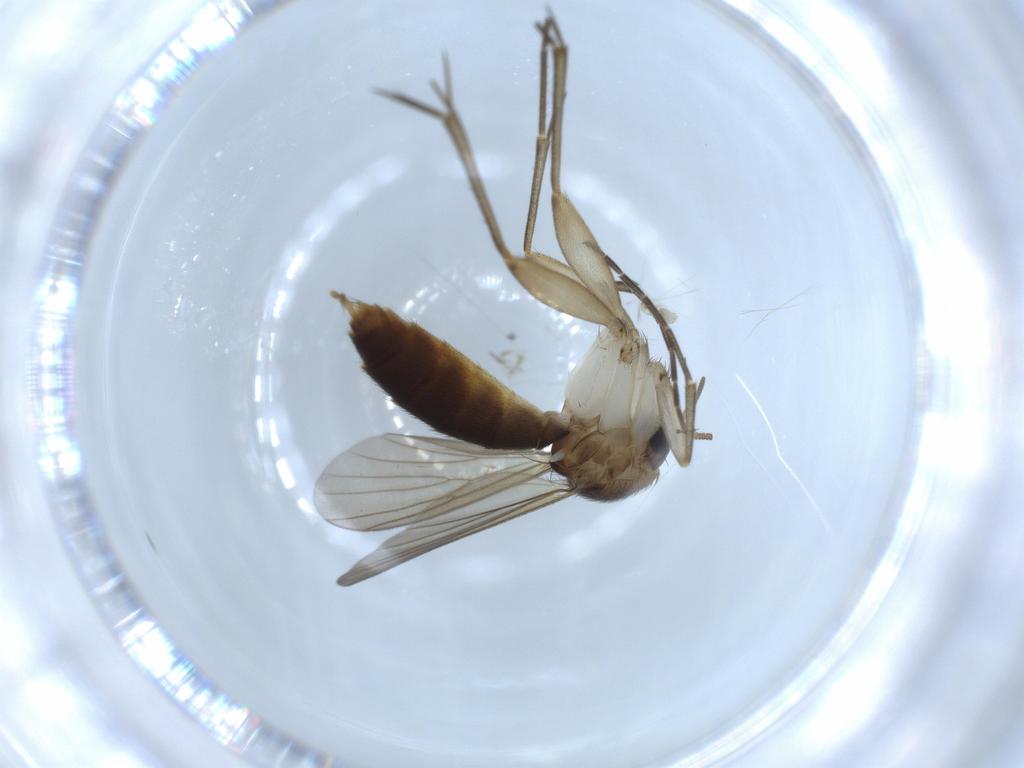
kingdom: Animalia
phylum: Arthropoda
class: Insecta
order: Diptera
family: Mycetophilidae
